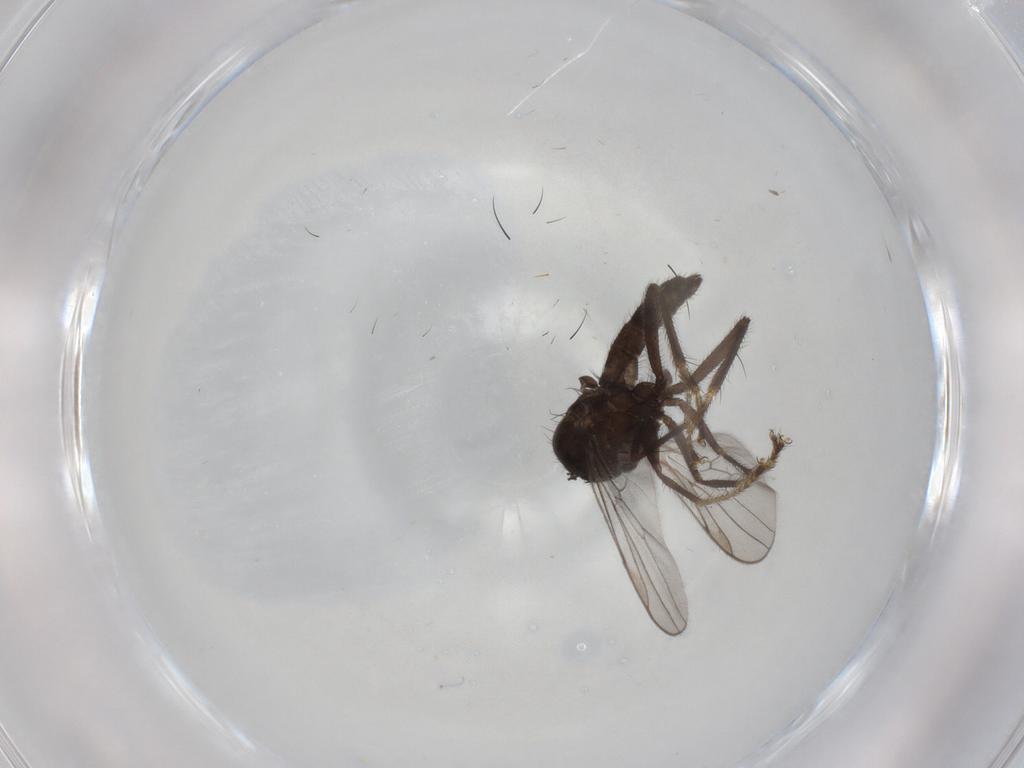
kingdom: Animalia
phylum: Arthropoda
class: Insecta
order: Diptera
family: Hybotidae
